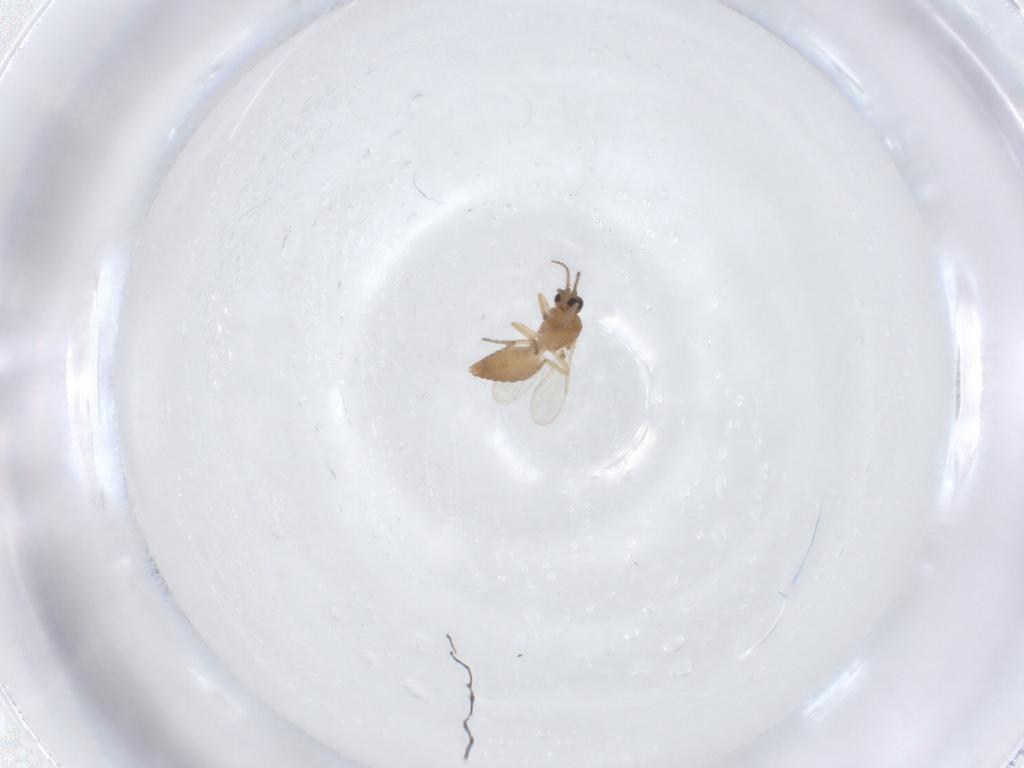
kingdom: Animalia
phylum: Arthropoda
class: Insecta
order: Diptera
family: Ceratopogonidae
